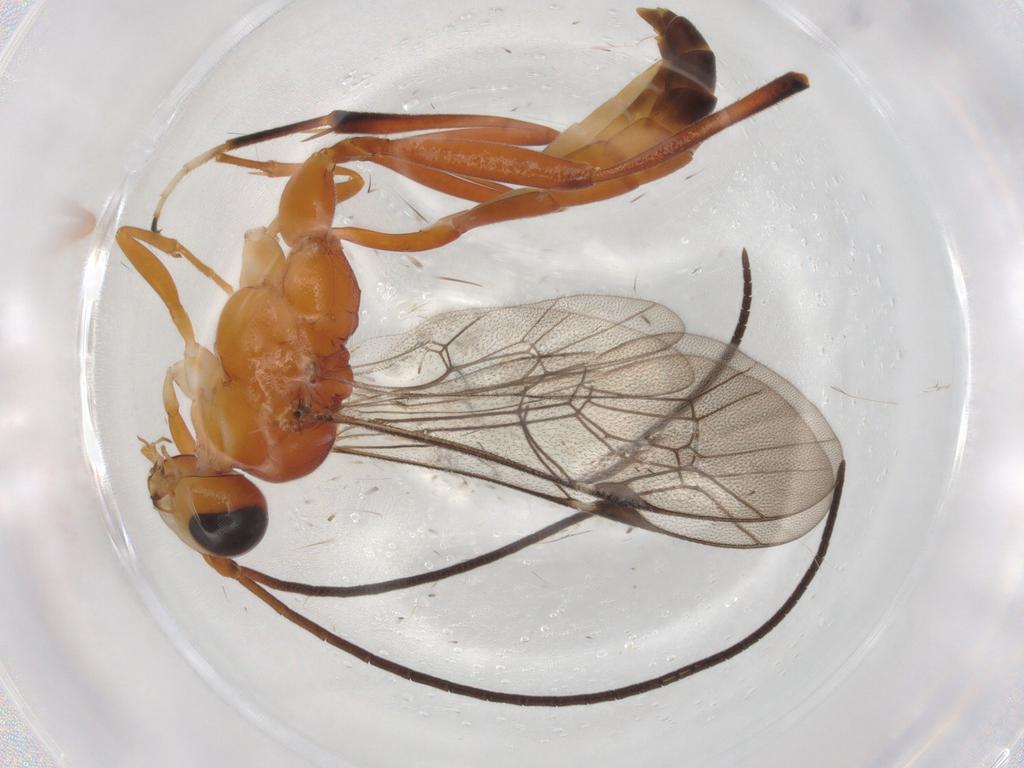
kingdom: Animalia
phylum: Arthropoda
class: Insecta
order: Hymenoptera
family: Ichneumonidae
